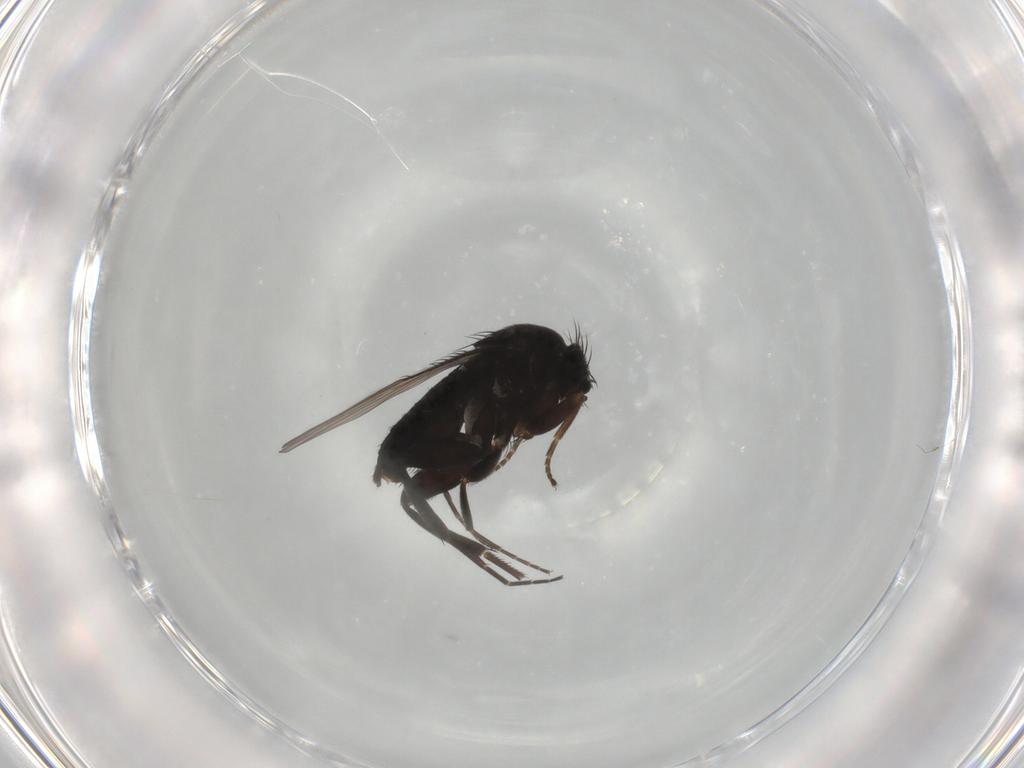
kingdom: Animalia
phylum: Arthropoda
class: Insecta
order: Diptera
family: Phoridae
